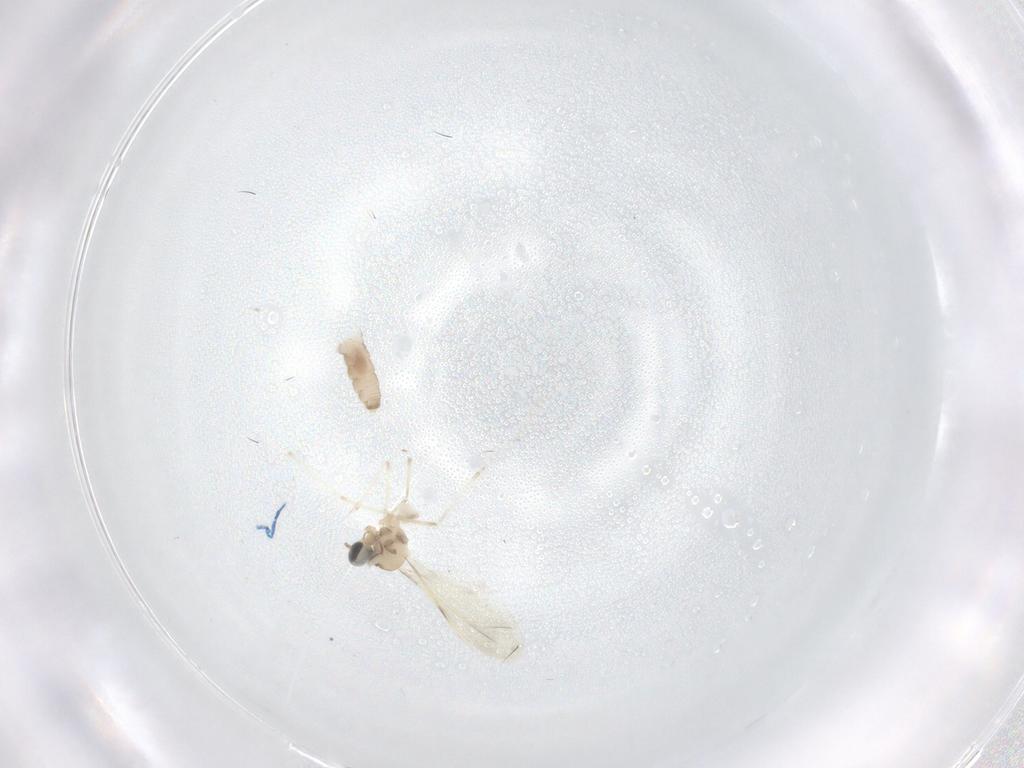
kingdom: Animalia
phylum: Arthropoda
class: Insecta
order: Diptera
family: Cecidomyiidae
